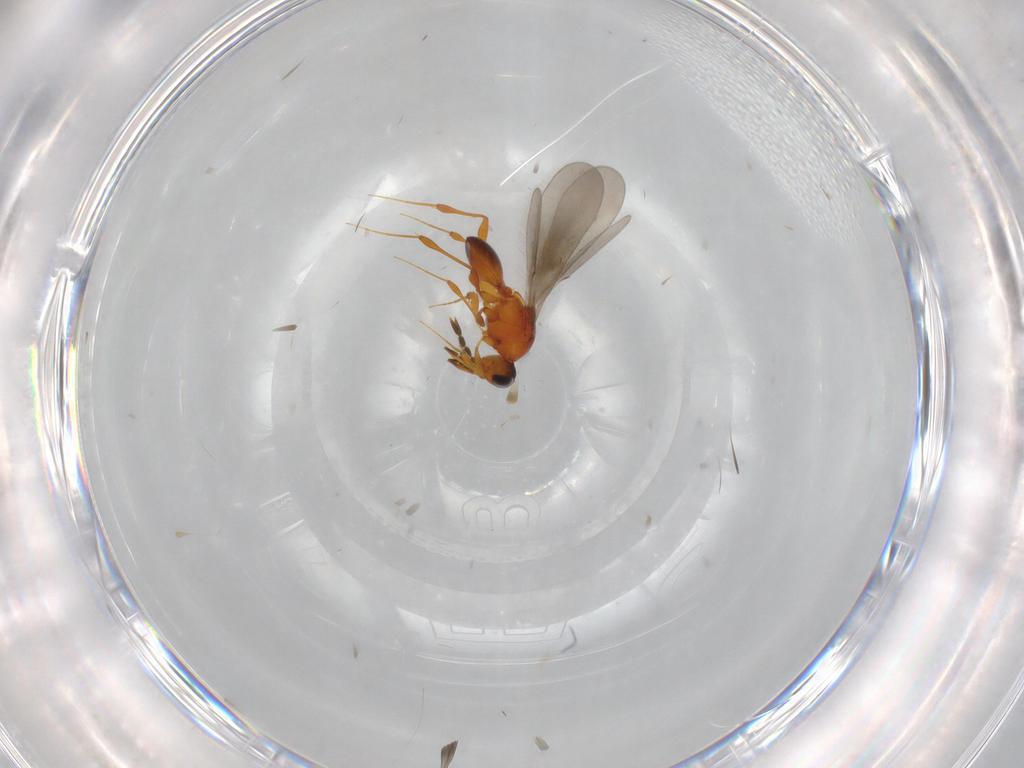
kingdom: Animalia
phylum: Arthropoda
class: Insecta
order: Hymenoptera
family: Platygastridae
